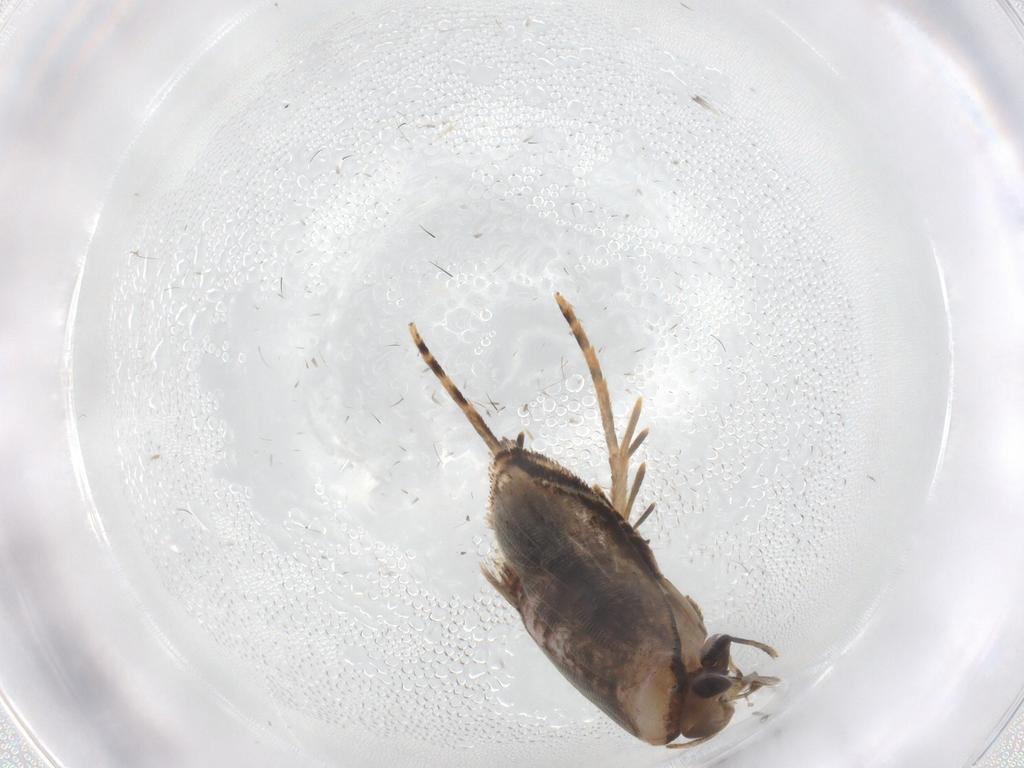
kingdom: Animalia
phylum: Arthropoda
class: Insecta
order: Lepidoptera
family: Gelechiidae
